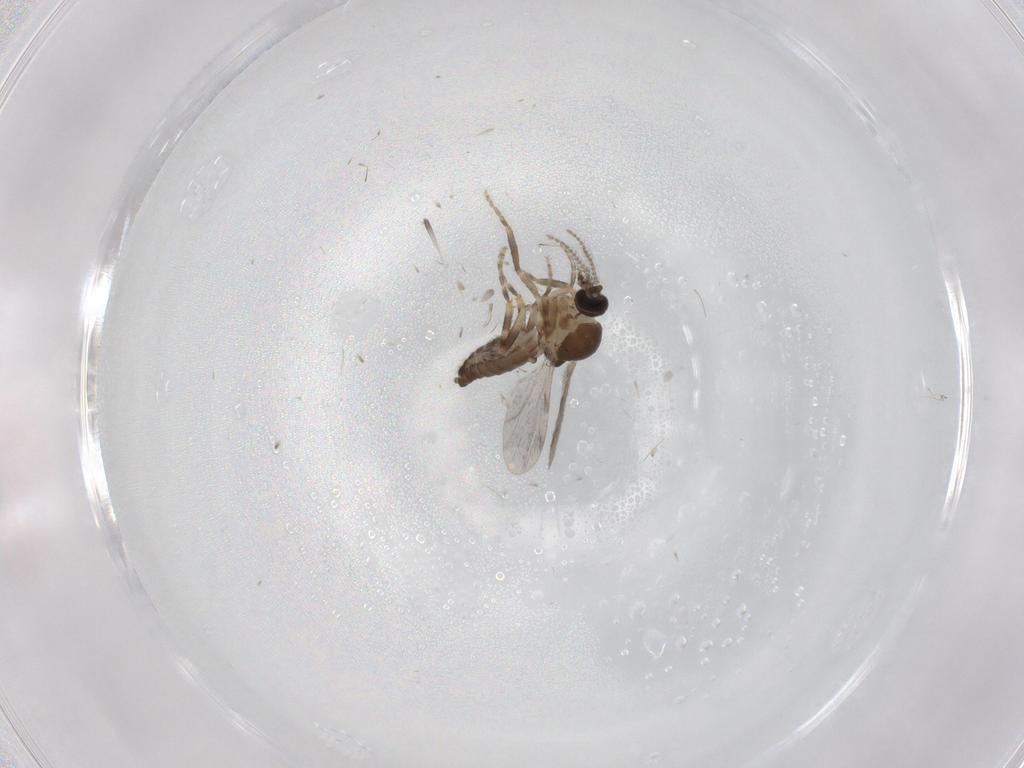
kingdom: Animalia
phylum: Arthropoda
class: Insecta
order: Diptera
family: Ceratopogonidae
